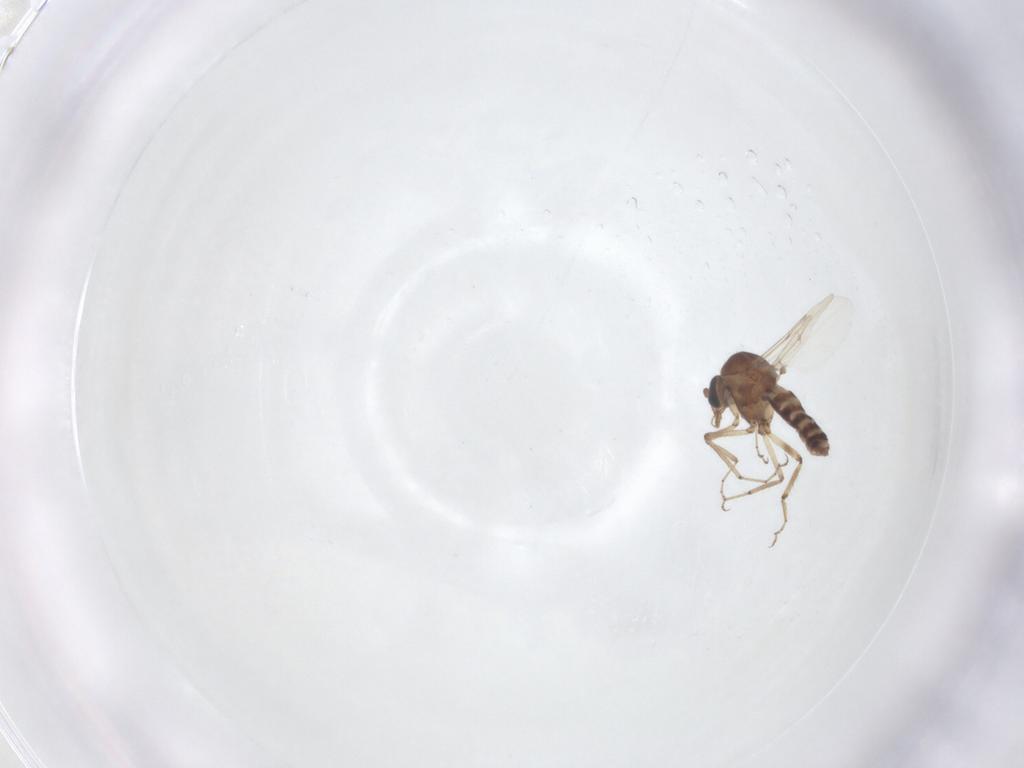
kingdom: Animalia
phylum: Arthropoda
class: Insecta
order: Diptera
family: Ceratopogonidae
